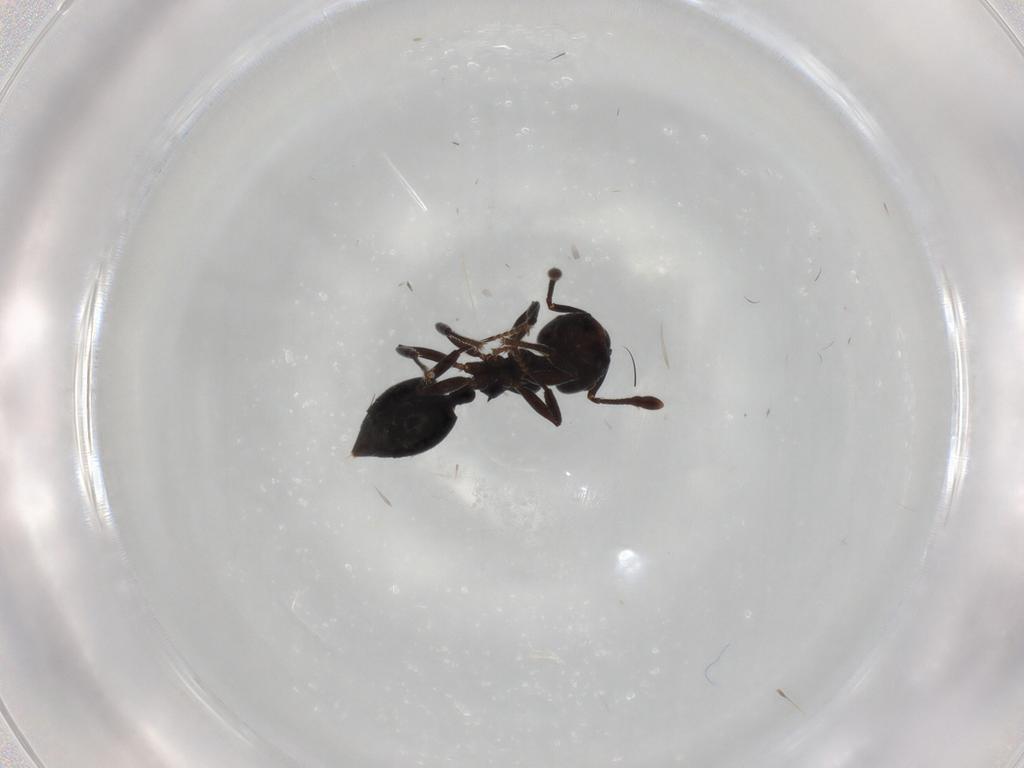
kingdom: Animalia
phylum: Arthropoda
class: Insecta
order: Hymenoptera
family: Formicidae
